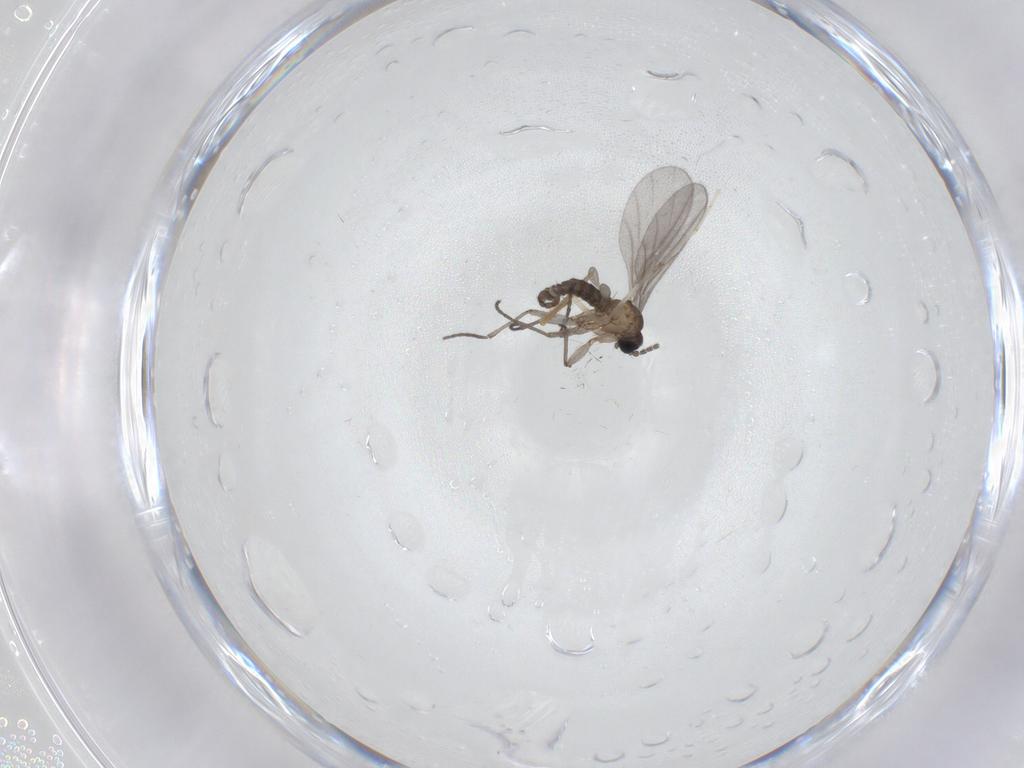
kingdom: Animalia
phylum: Arthropoda
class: Insecta
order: Diptera
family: Sciaridae
